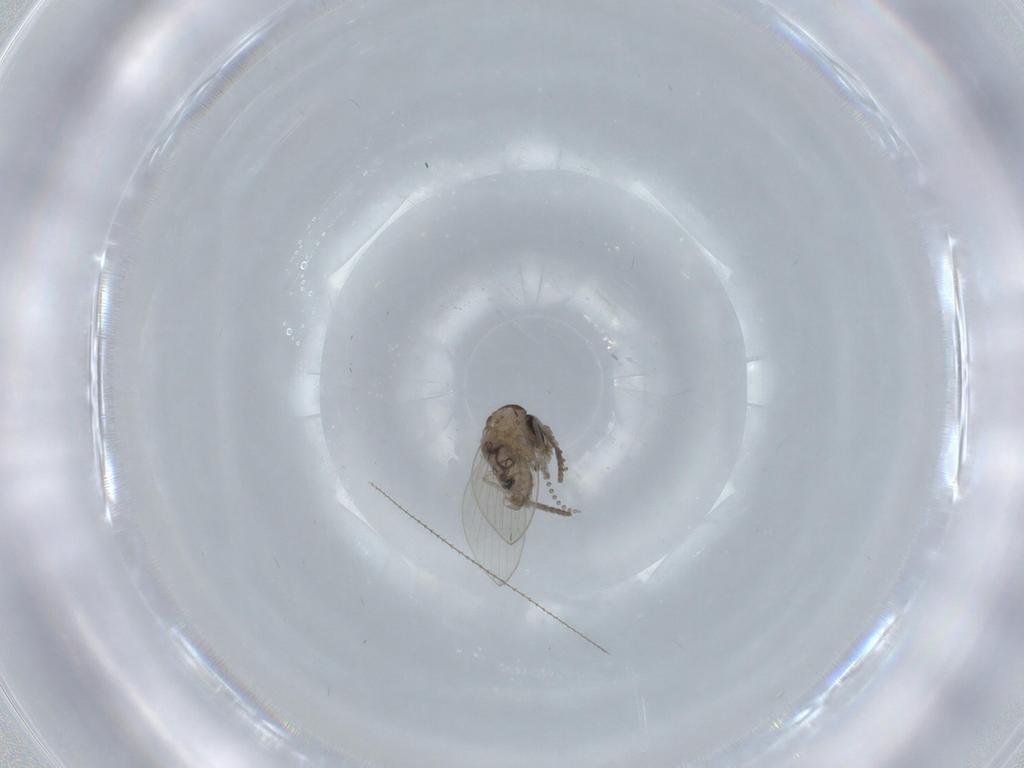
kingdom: Animalia
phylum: Arthropoda
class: Insecta
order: Diptera
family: Psychodidae
